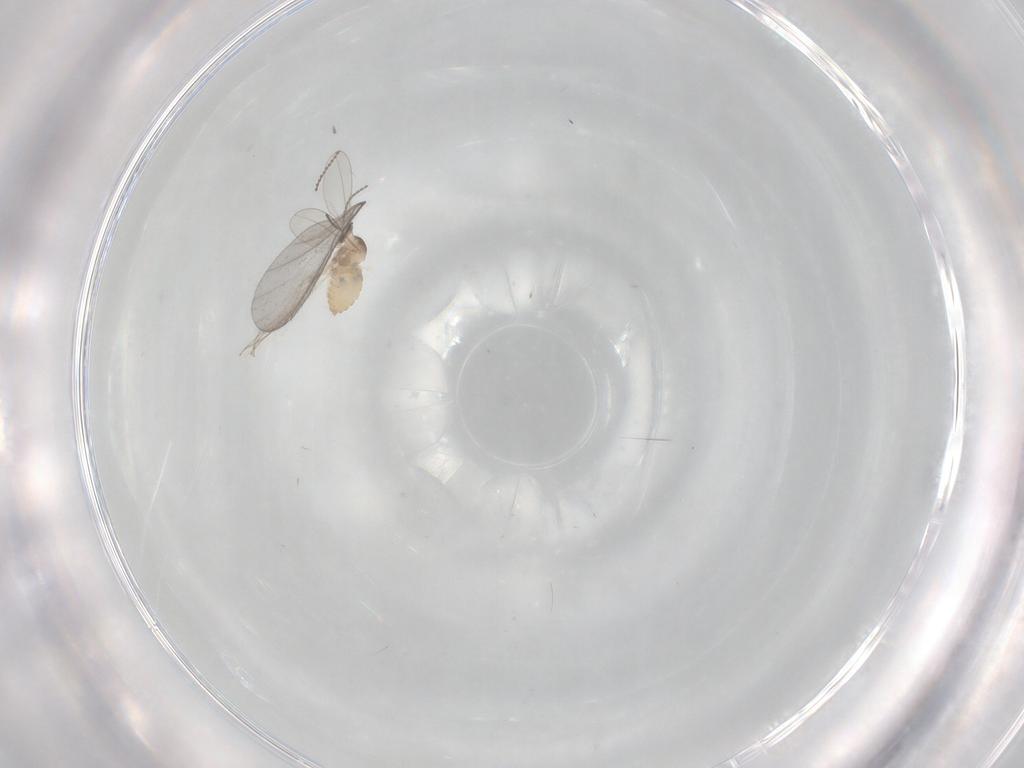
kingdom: Animalia
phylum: Arthropoda
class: Insecta
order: Diptera
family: Cecidomyiidae
